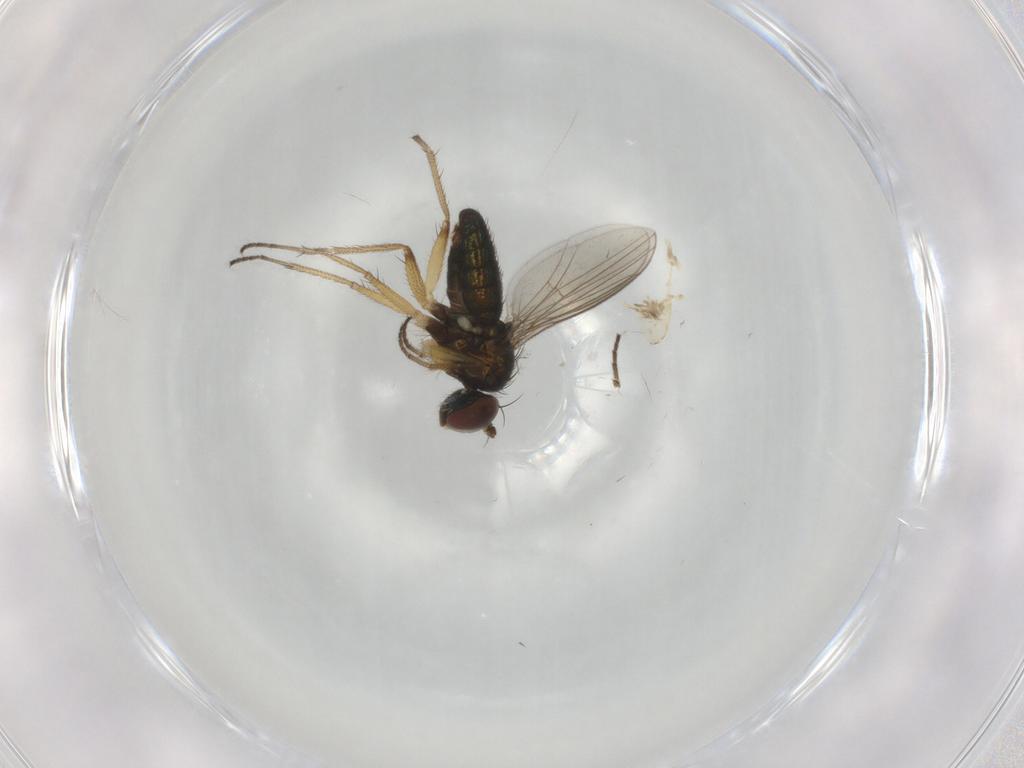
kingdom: Animalia
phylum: Arthropoda
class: Insecta
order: Diptera
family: Dolichopodidae
